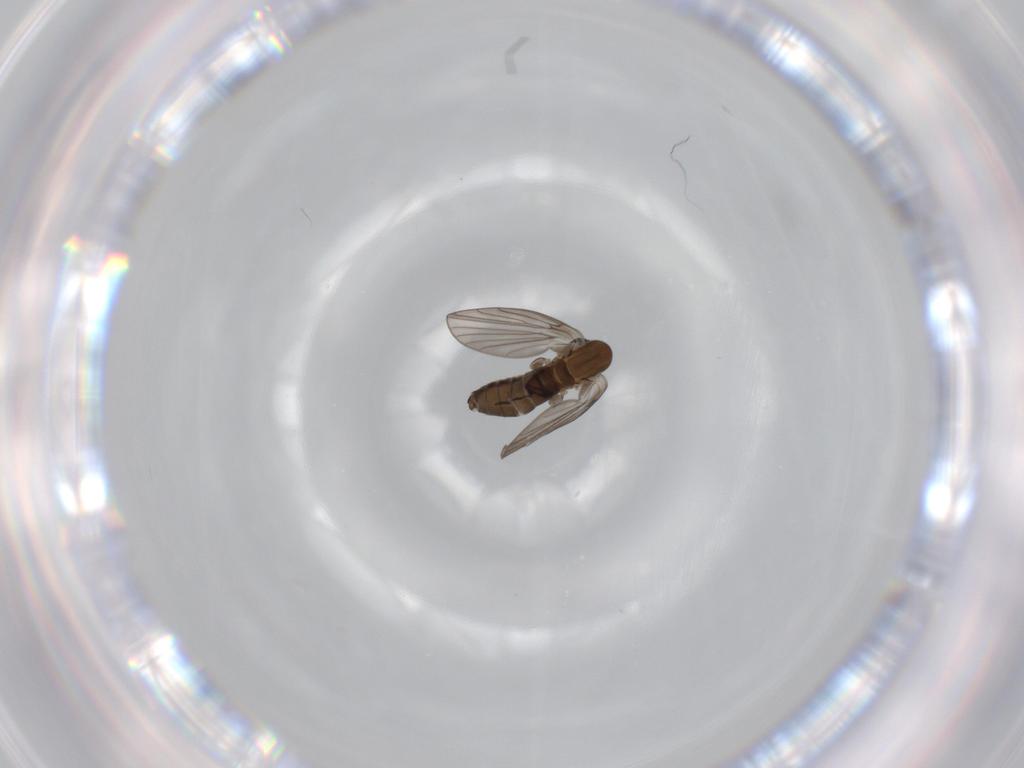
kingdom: Animalia
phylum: Arthropoda
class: Insecta
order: Diptera
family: Psychodidae
